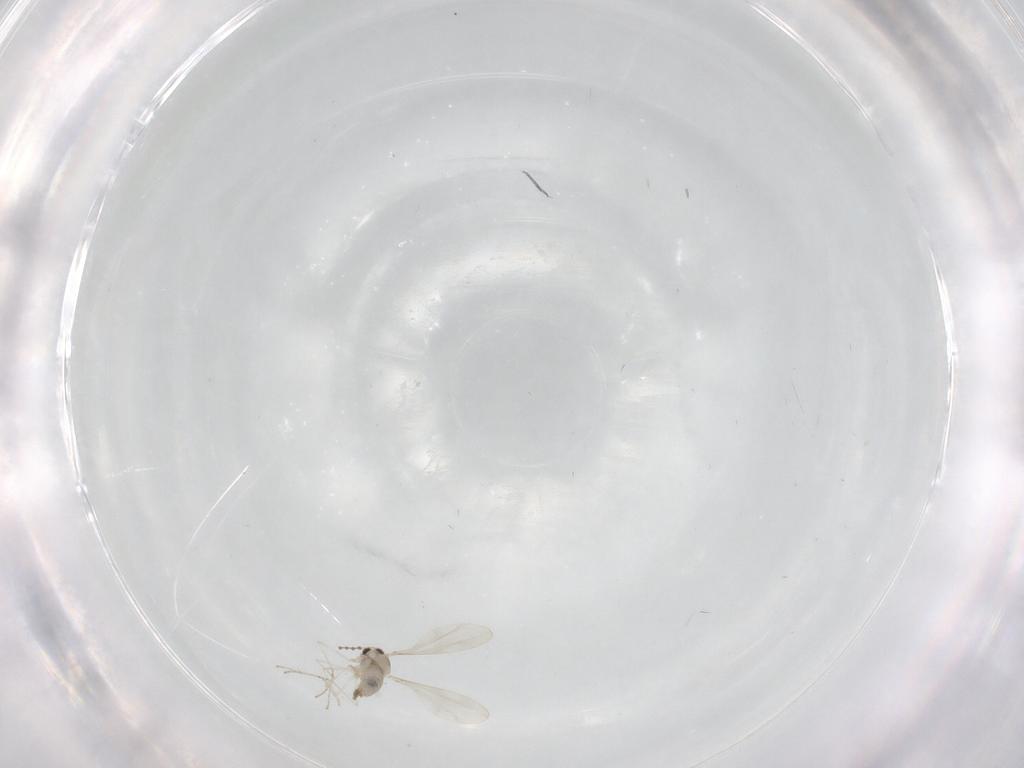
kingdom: Animalia
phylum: Arthropoda
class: Insecta
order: Diptera
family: Cecidomyiidae
